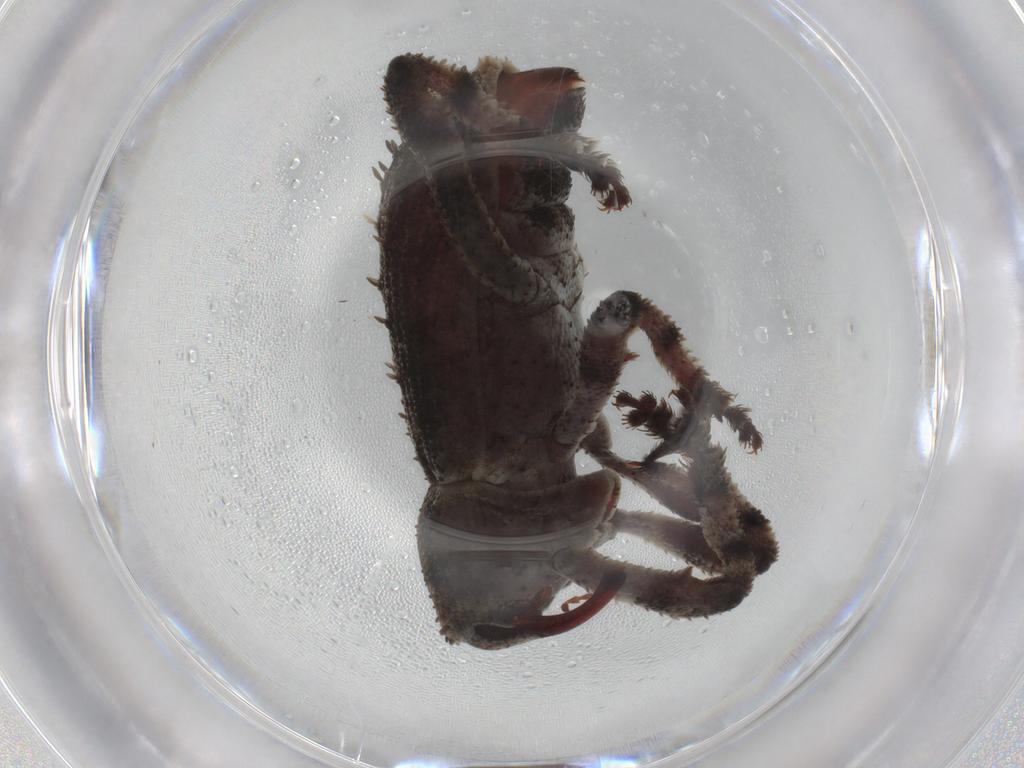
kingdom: Animalia
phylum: Arthropoda
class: Insecta
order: Coleoptera
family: Curculionidae
